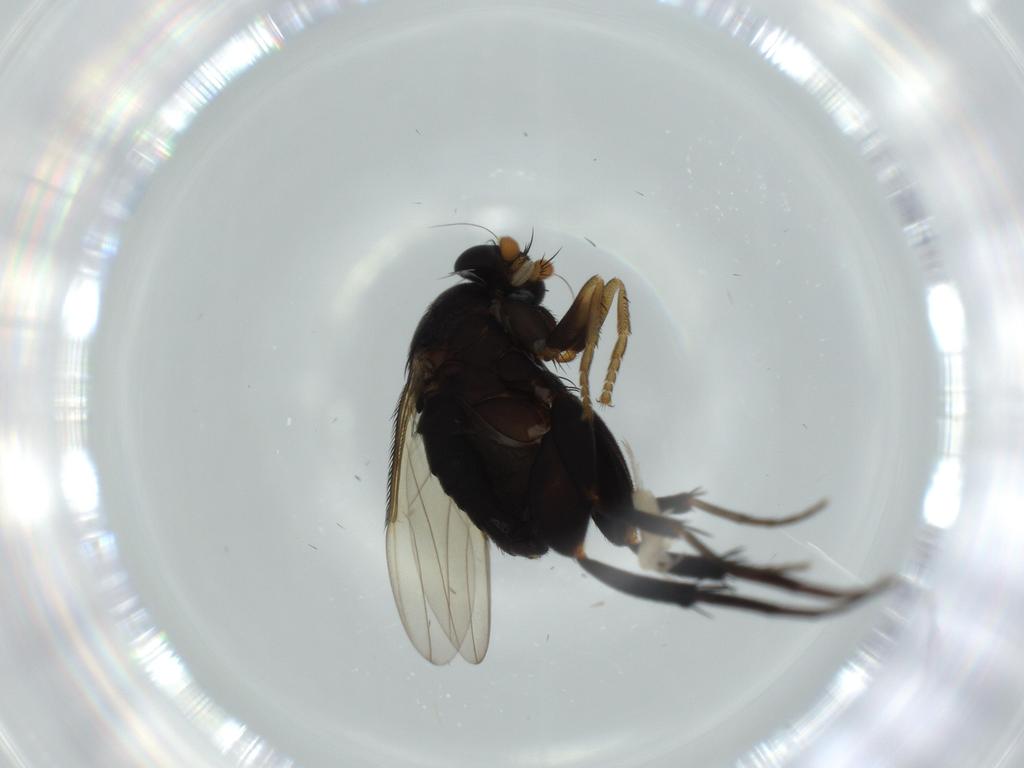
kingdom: Animalia
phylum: Arthropoda
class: Insecta
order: Diptera
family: Phoridae
